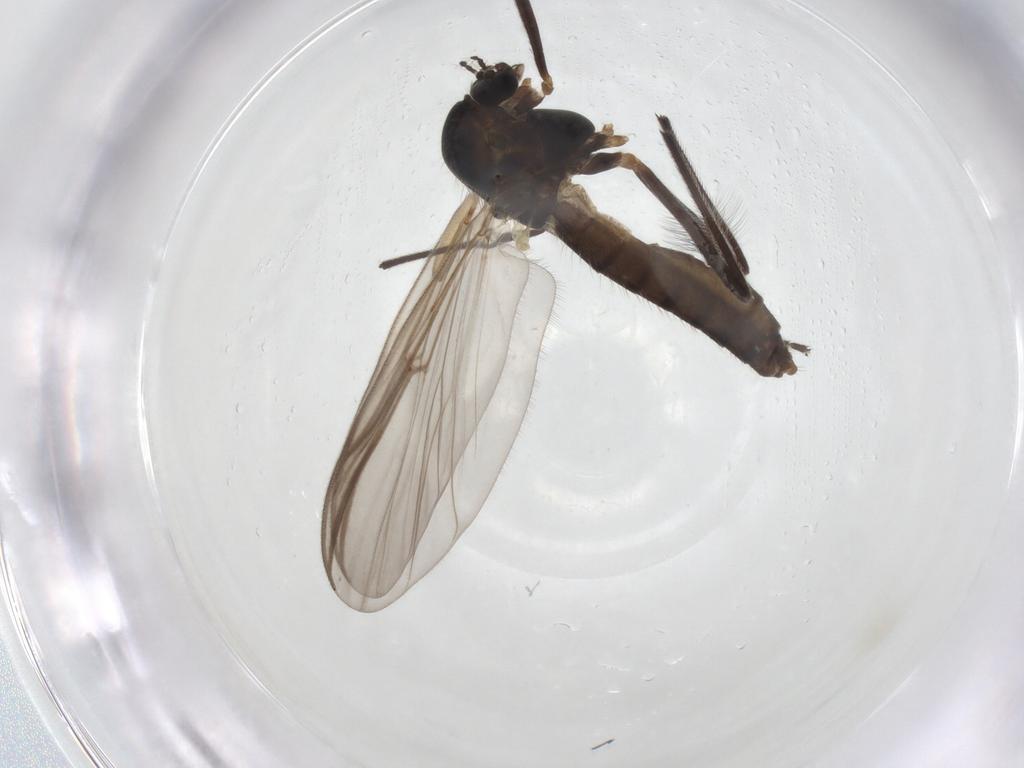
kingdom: Animalia
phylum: Arthropoda
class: Insecta
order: Diptera
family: Chironomidae
